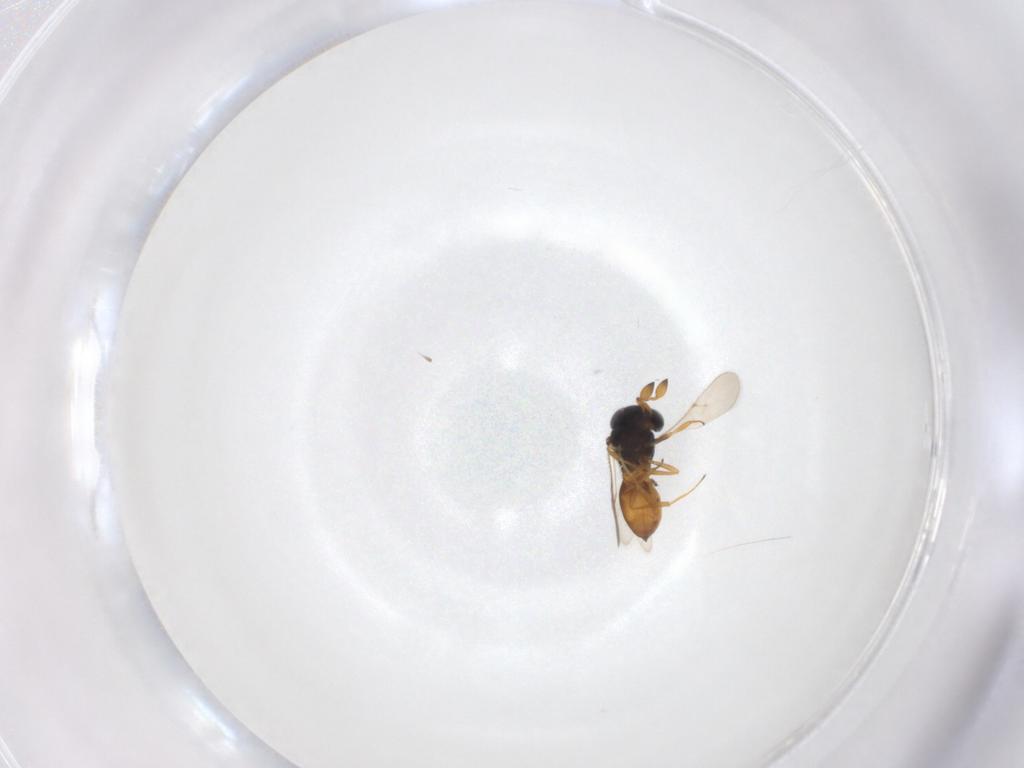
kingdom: Animalia
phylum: Arthropoda
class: Insecta
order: Hymenoptera
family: Scelionidae
